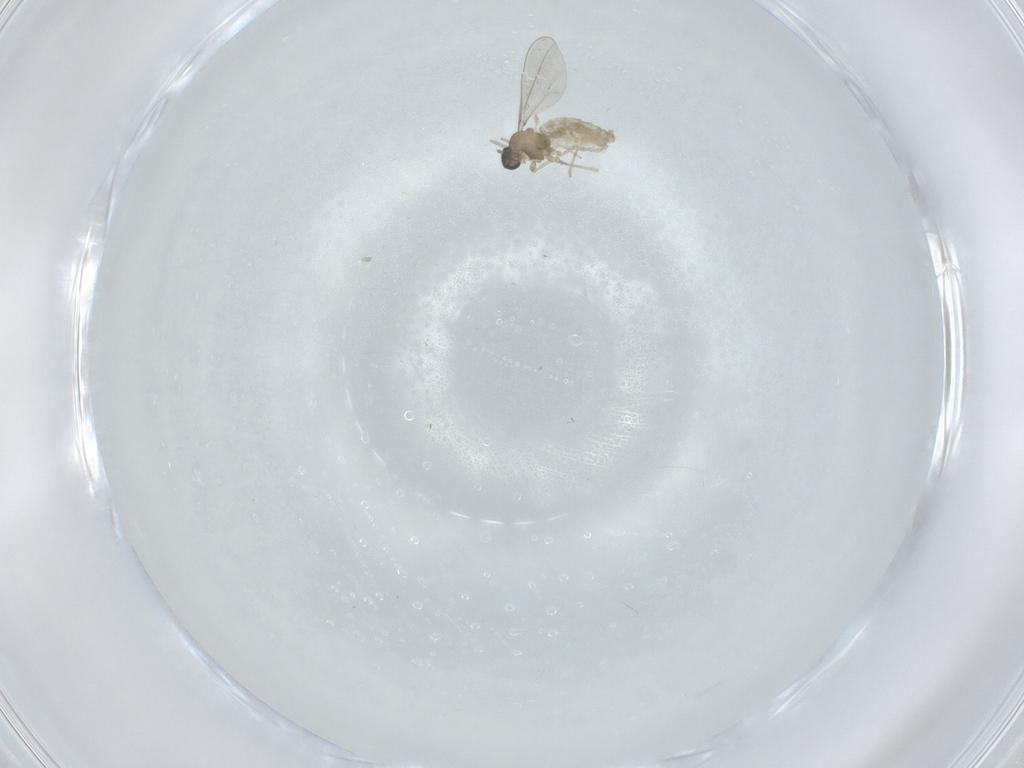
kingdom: Animalia
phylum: Arthropoda
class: Insecta
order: Diptera
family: Cecidomyiidae
